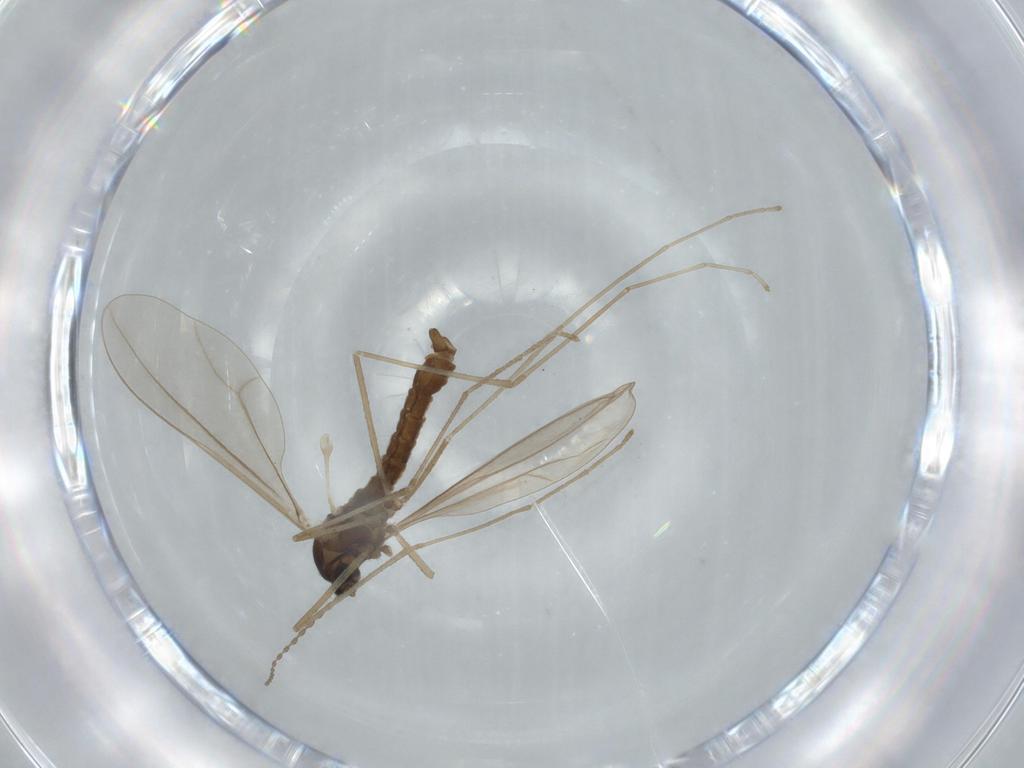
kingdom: Animalia
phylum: Arthropoda
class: Insecta
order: Diptera
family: Cecidomyiidae
